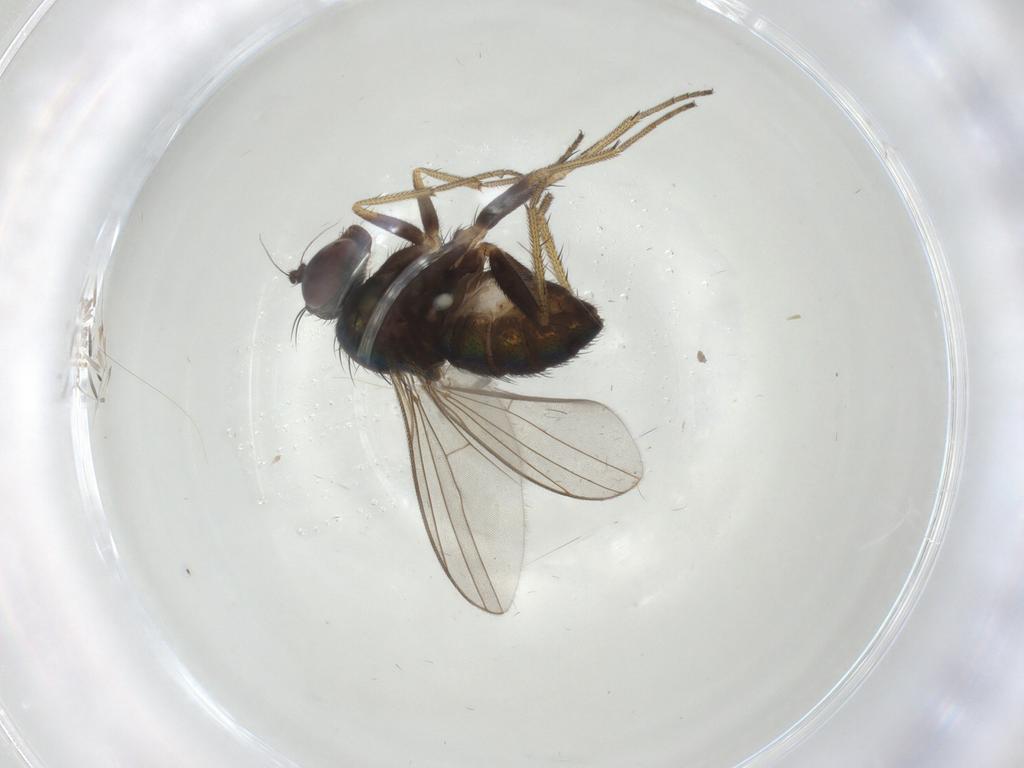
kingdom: Animalia
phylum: Arthropoda
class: Insecta
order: Diptera
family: Dolichopodidae
